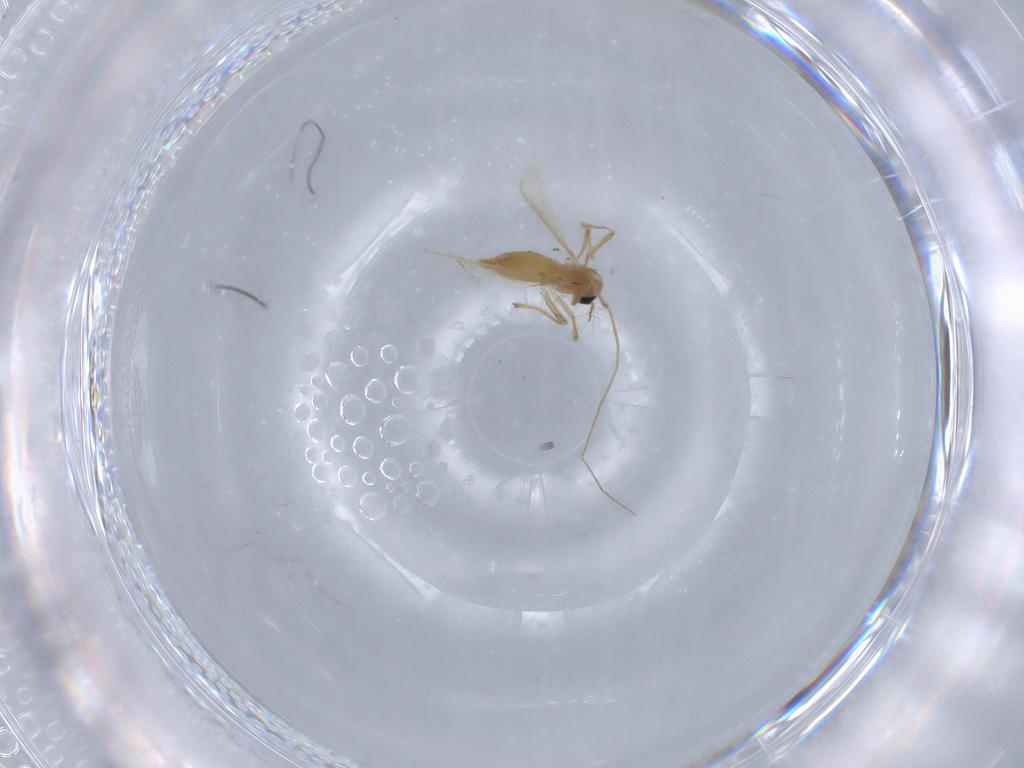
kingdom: Animalia
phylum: Arthropoda
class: Insecta
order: Diptera
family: Chironomidae
